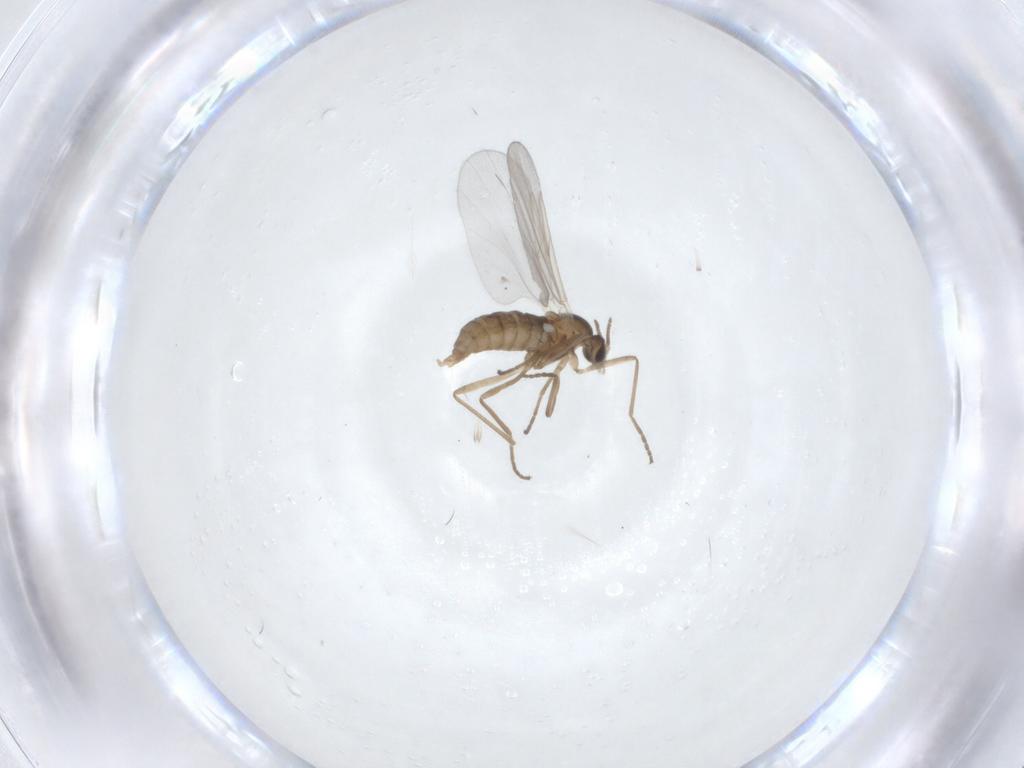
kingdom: Animalia
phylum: Arthropoda
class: Insecta
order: Diptera
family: Cecidomyiidae
